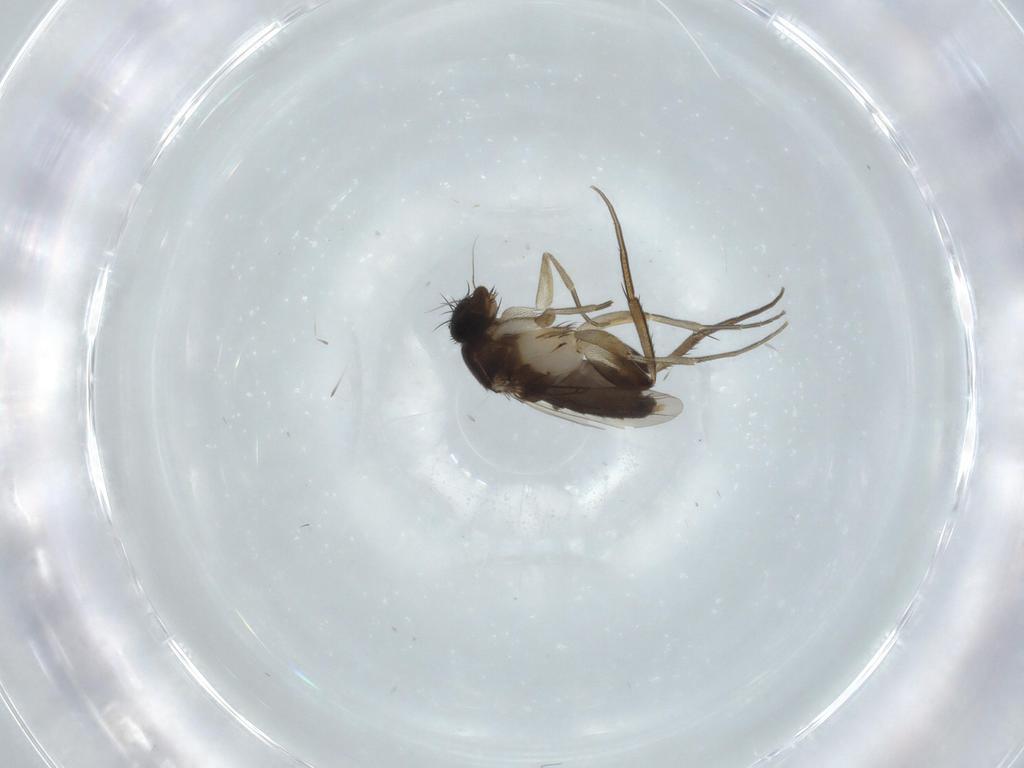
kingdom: Animalia
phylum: Arthropoda
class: Insecta
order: Diptera
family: Phoridae
